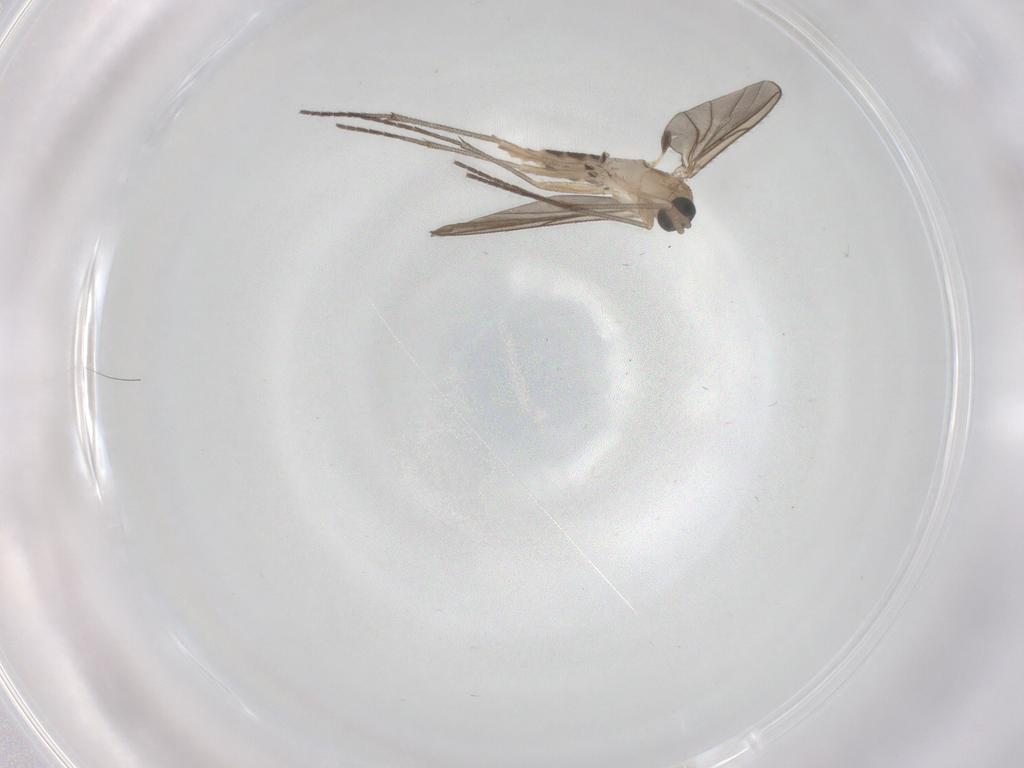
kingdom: Animalia
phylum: Arthropoda
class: Insecta
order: Diptera
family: Sciaridae
